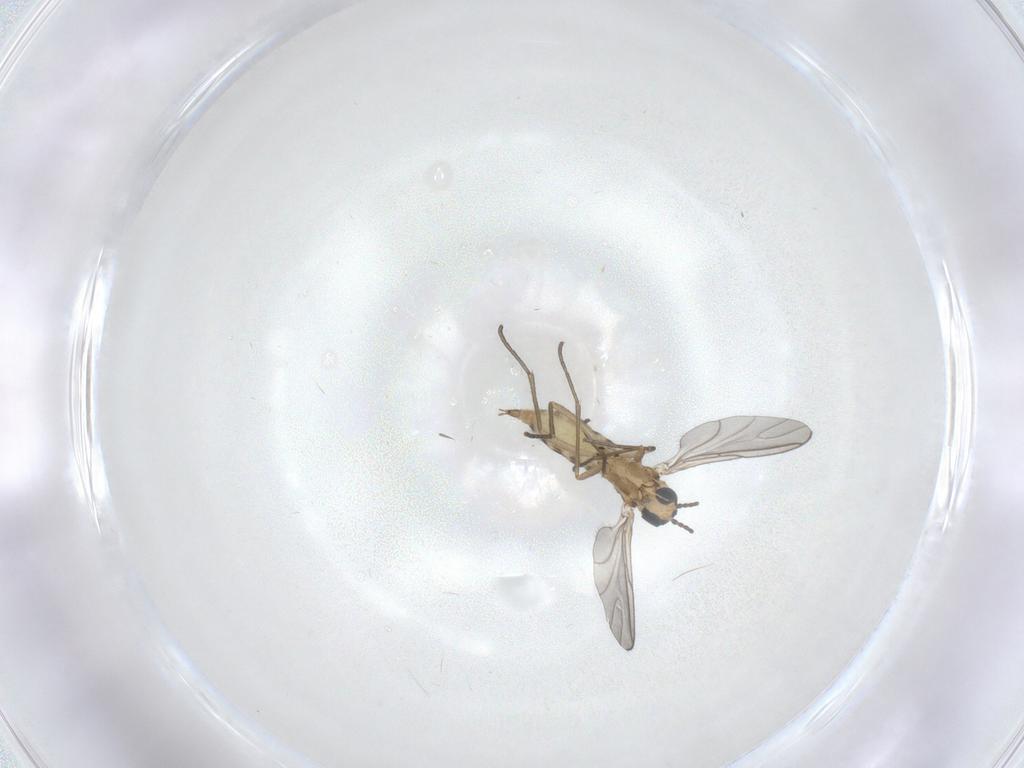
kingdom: Animalia
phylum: Arthropoda
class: Insecta
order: Diptera
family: Sciaridae
